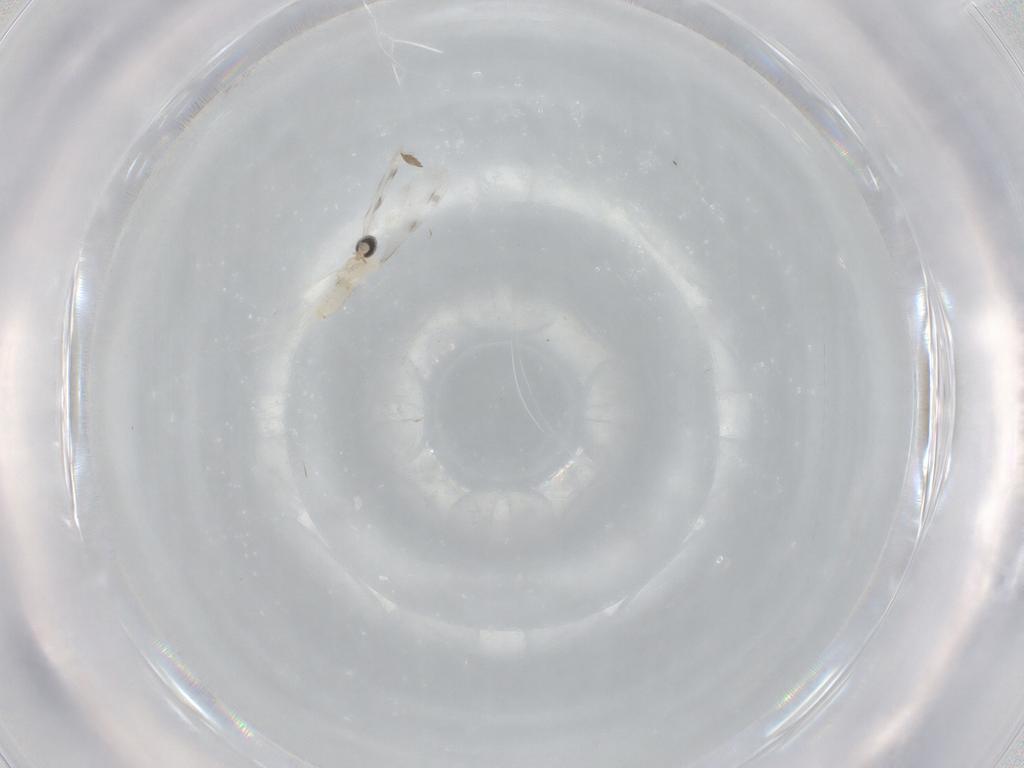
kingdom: Animalia
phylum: Arthropoda
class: Insecta
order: Diptera
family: Cecidomyiidae
